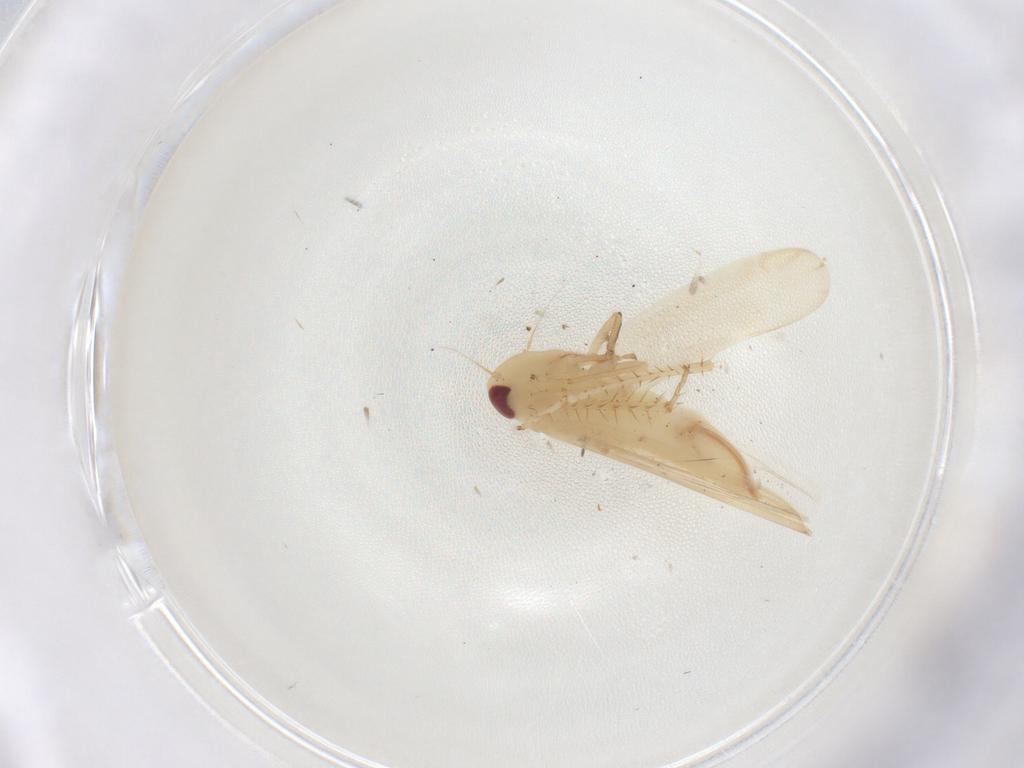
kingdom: Animalia
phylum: Arthropoda
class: Insecta
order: Hemiptera
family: Cicadellidae
